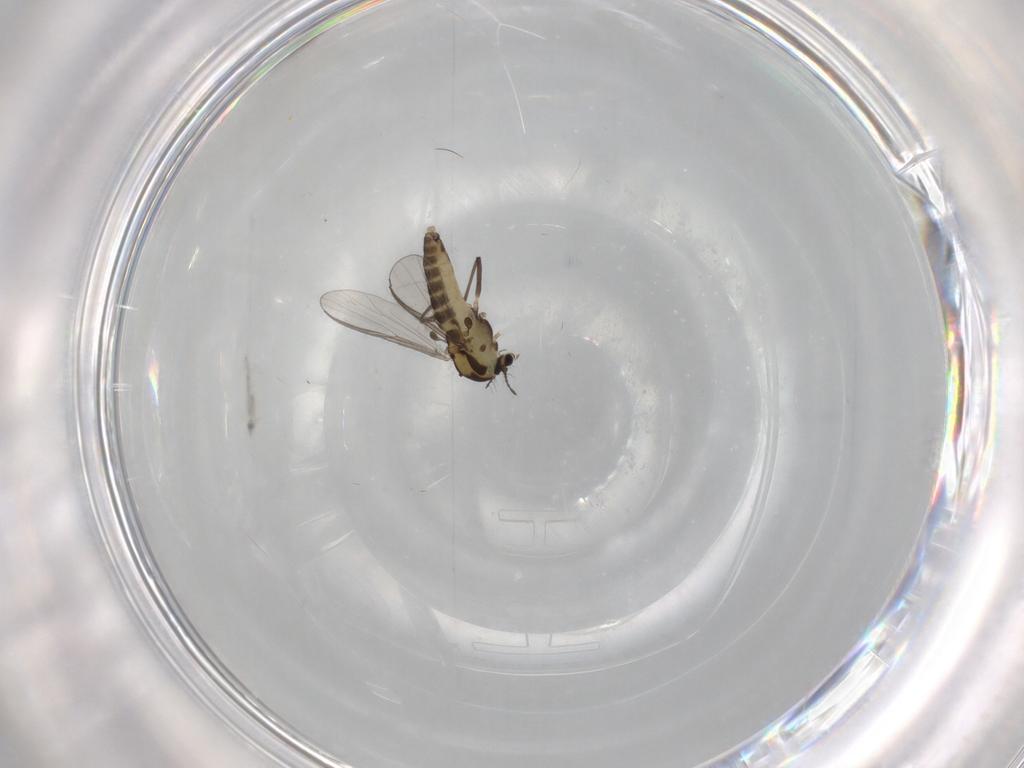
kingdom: Animalia
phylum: Arthropoda
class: Insecta
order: Diptera
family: Chironomidae
